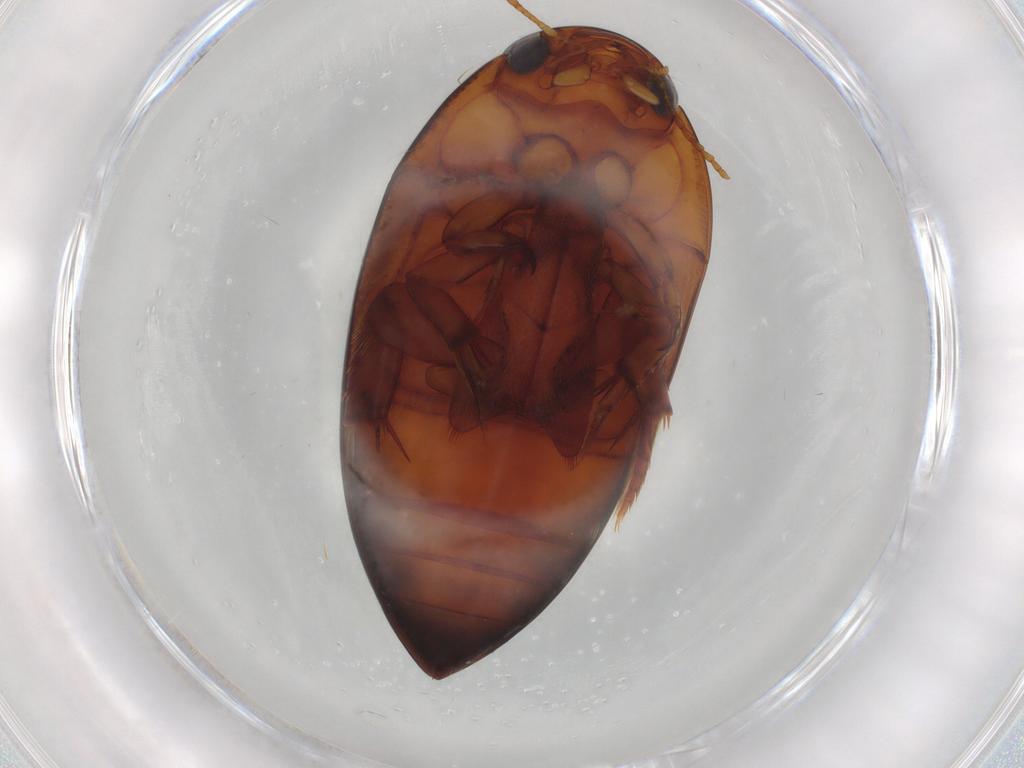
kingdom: Animalia
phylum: Arthropoda
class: Insecta
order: Coleoptera
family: Noteridae
